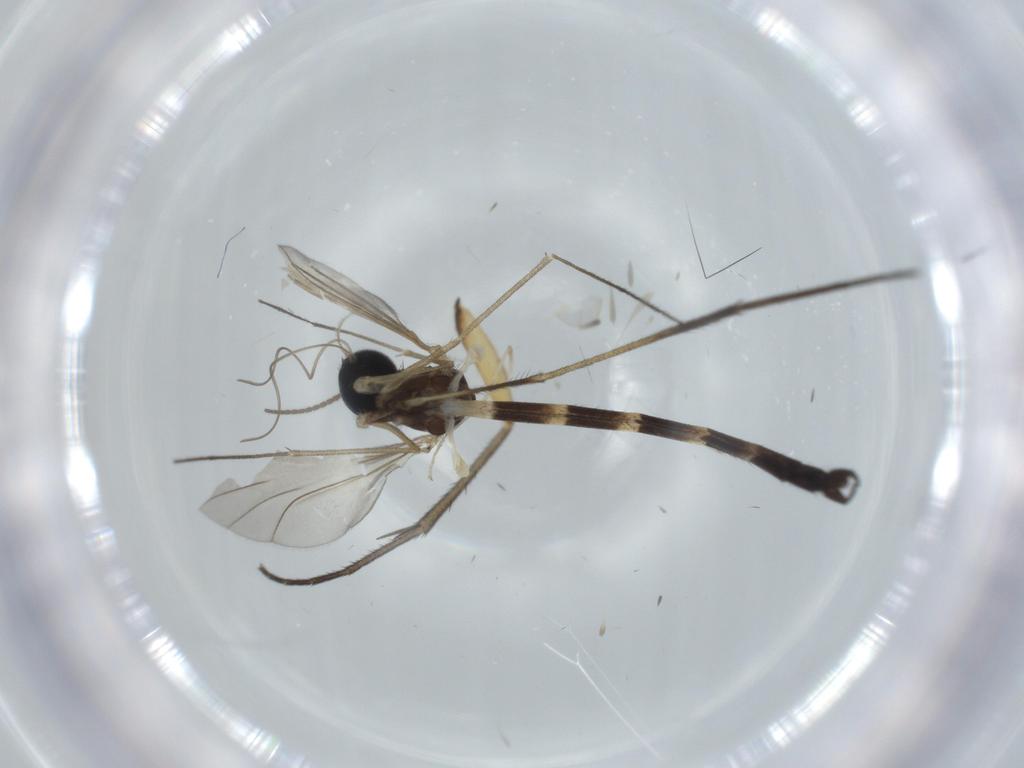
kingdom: Animalia
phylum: Arthropoda
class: Insecta
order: Diptera
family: Sciaridae
